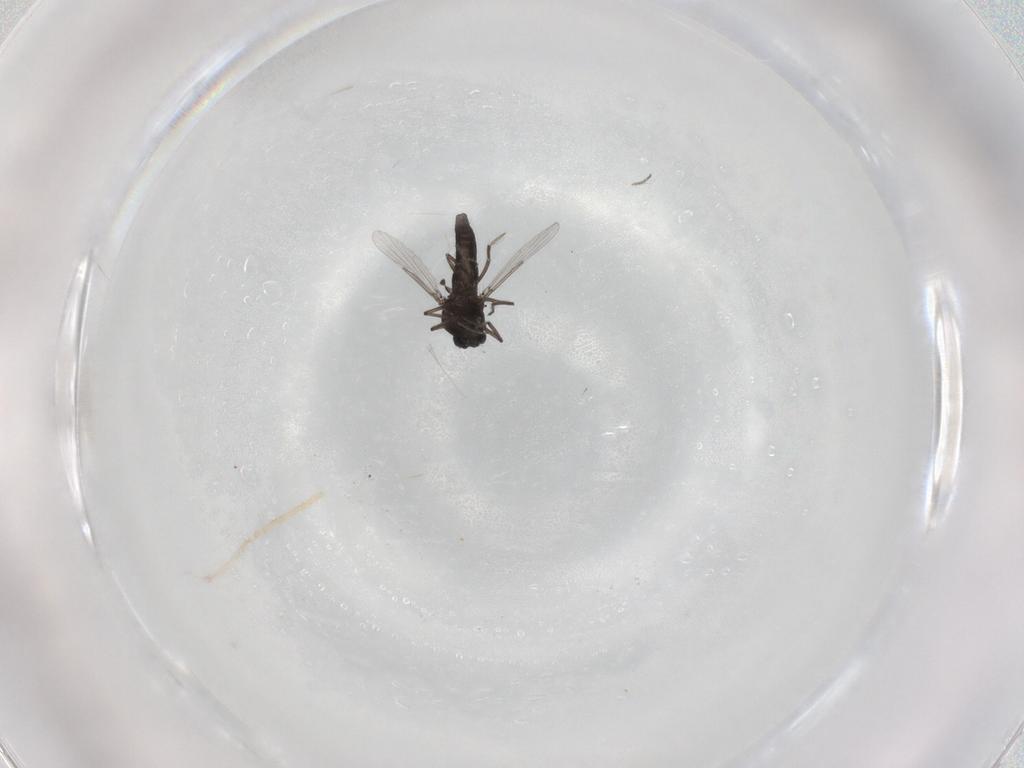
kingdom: Animalia
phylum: Arthropoda
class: Insecta
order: Diptera
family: Ceratopogonidae
